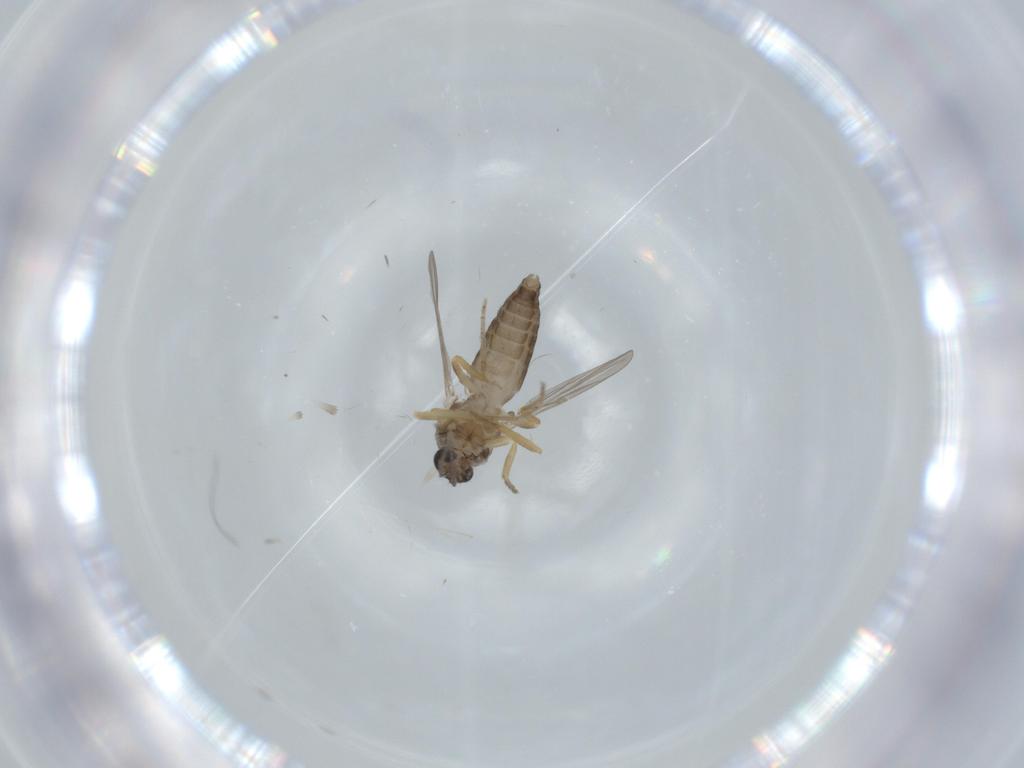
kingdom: Animalia
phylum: Arthropoda
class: Insecta
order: Diptera
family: Ceratopogonidae
